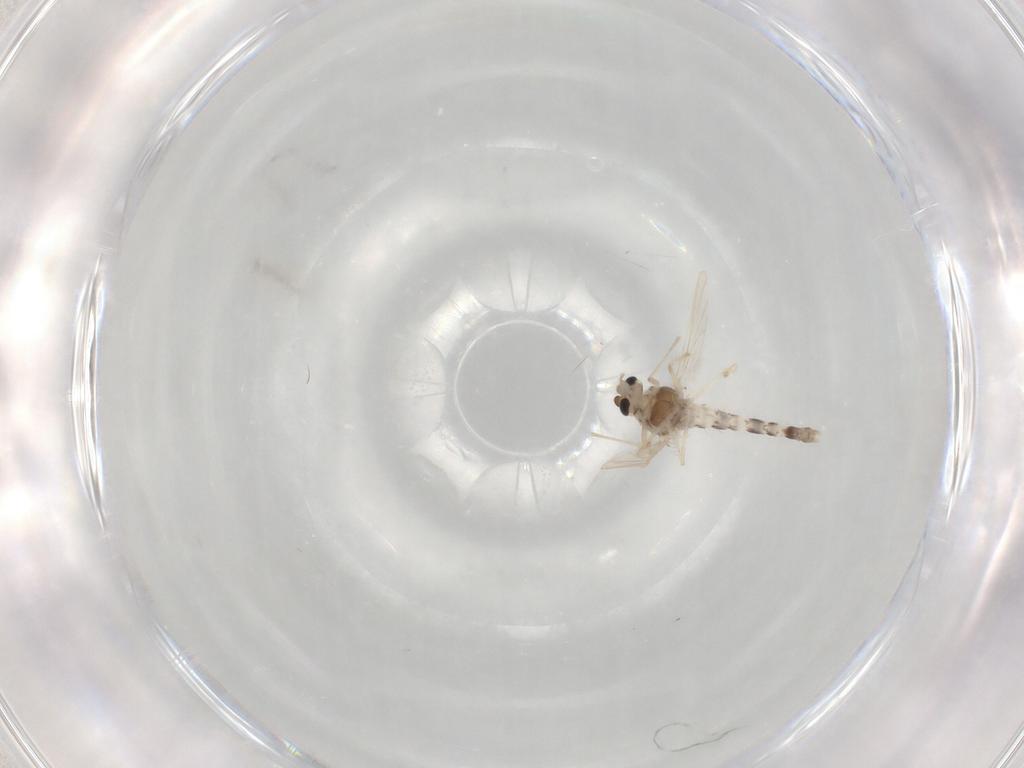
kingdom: Animalia
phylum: Arthropoda
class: Insecta
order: Diptera
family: Chironomidae
